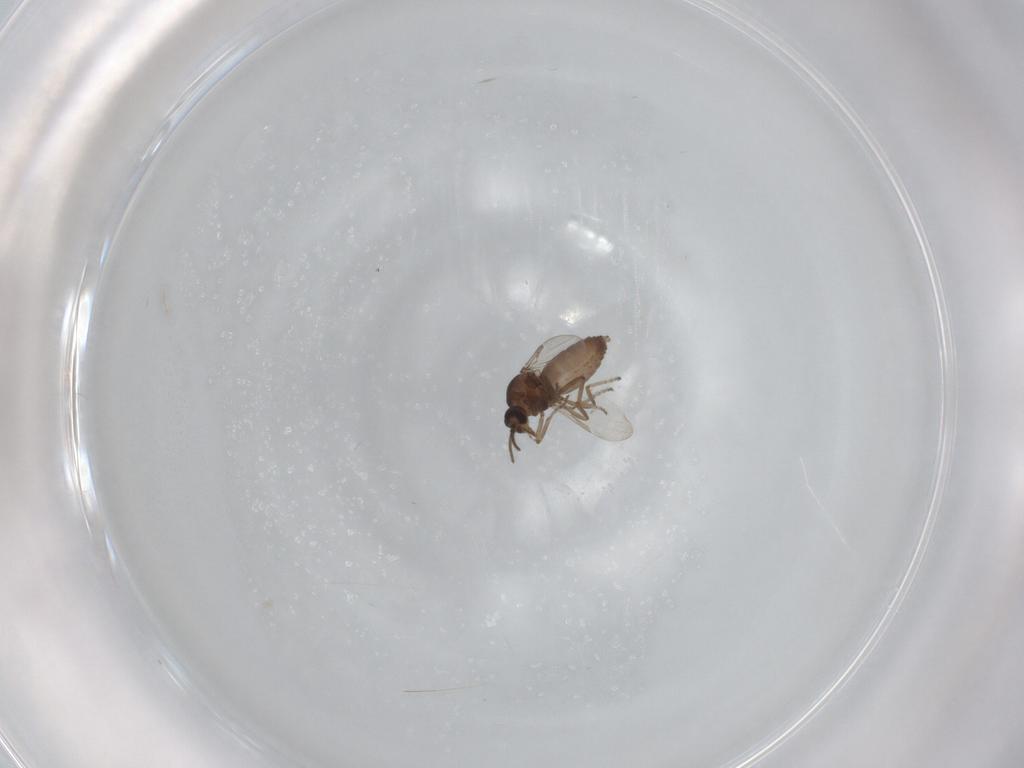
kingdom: Animalia
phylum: Arthropoda
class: Insecta
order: Diptera
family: Ceratopogonidae
